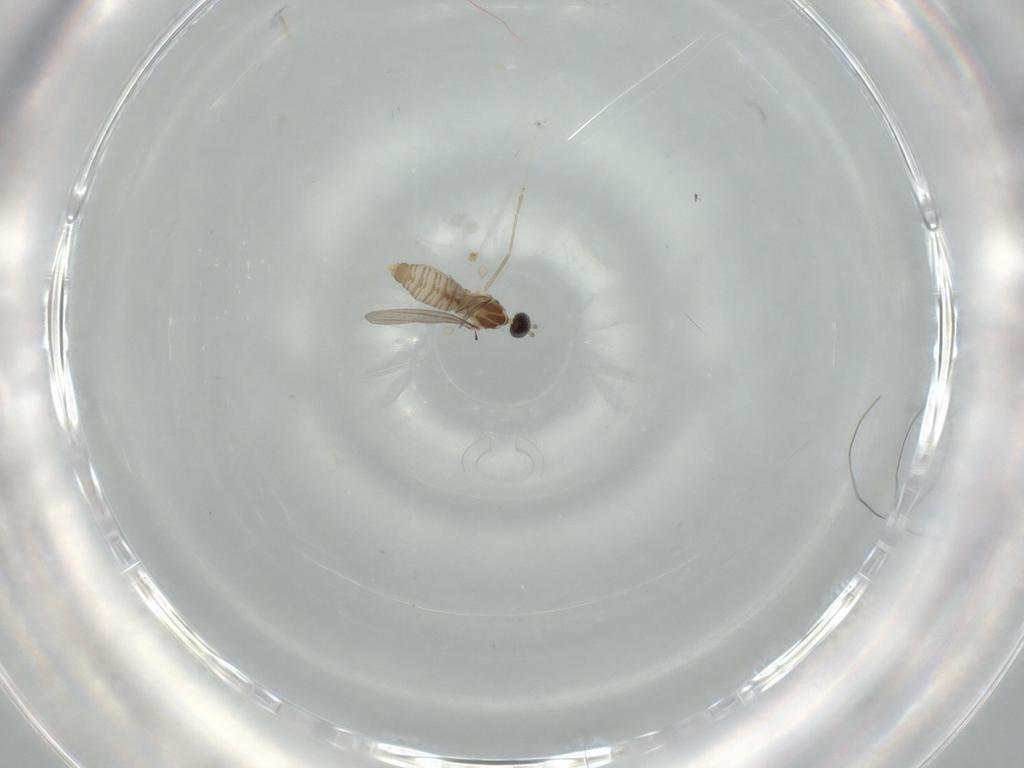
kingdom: Animalia
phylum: Arthropoda
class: Insecta
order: Diptera
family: Cecidomyiidae
